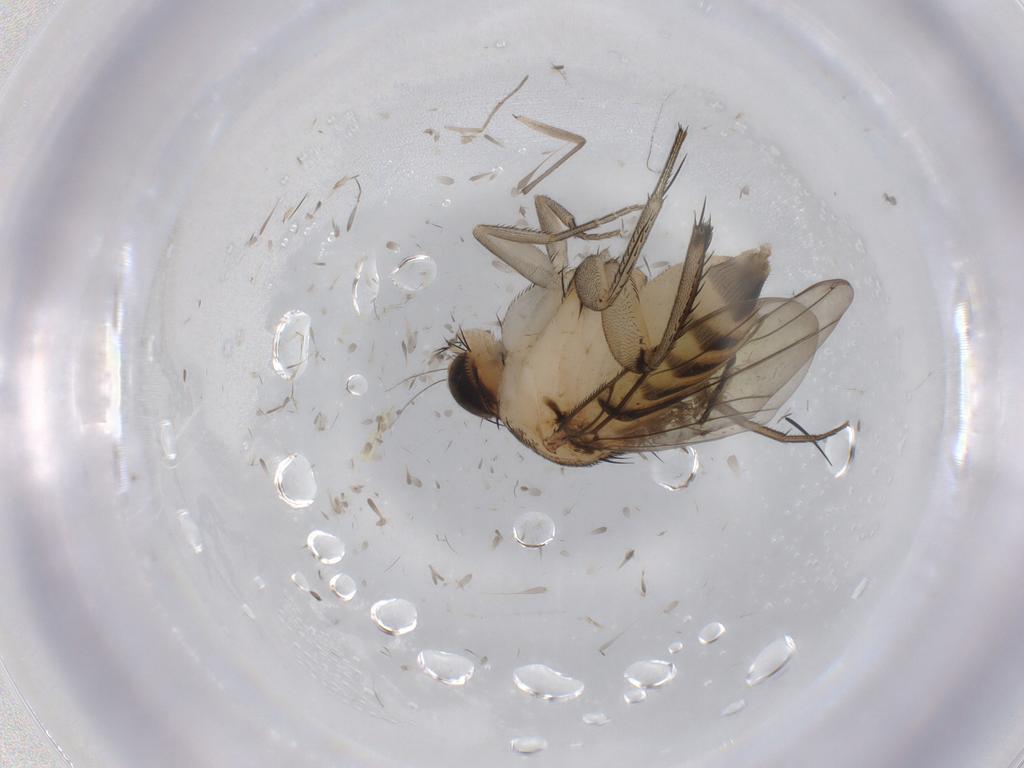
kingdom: Animalia
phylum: Arthropoda
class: Insecta
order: Diptera
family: Phoridae
